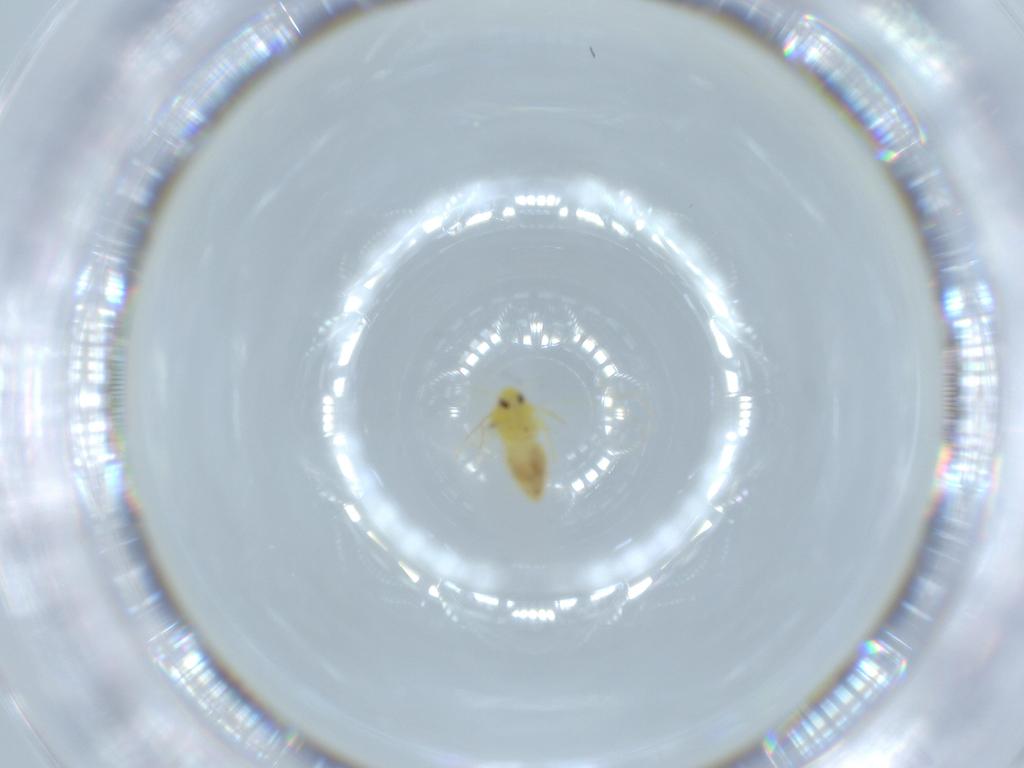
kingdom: Animalia
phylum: Arthropoda
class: Insecta
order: Hemiptera
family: Aleyrodidae
